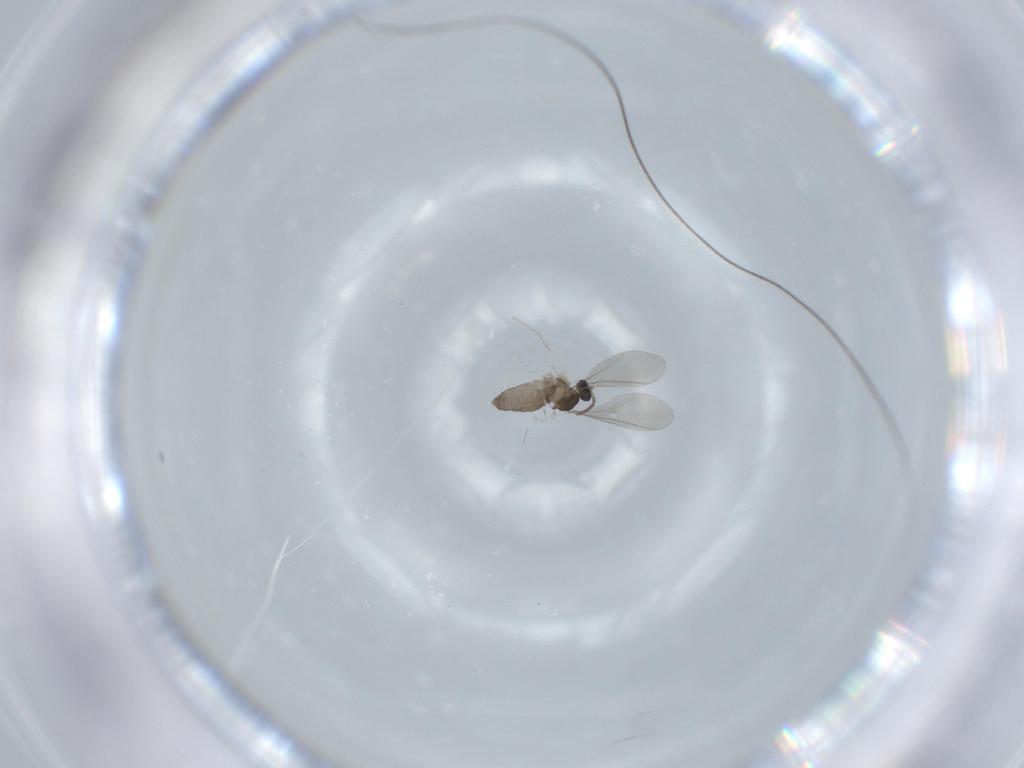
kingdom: Animalia
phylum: Arthropoda
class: Insecta
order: Diptera
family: Cecidomyiidae
